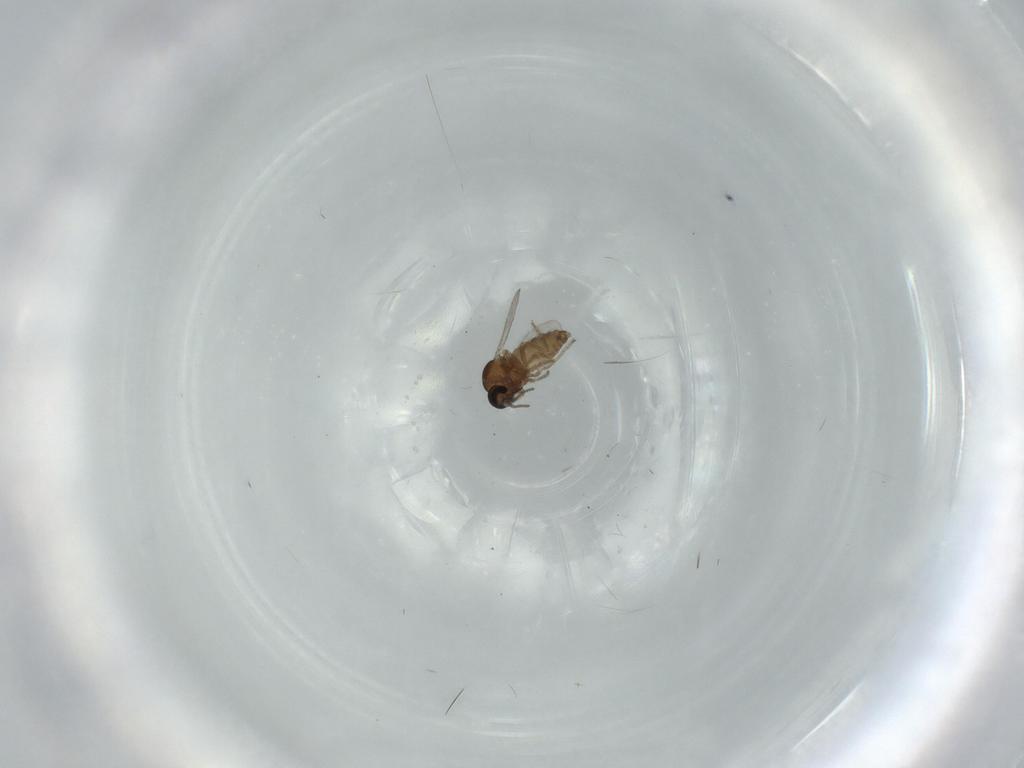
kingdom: Animalia
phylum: Arthropoda
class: Insecta
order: Diptera
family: Ceratopogonidae
